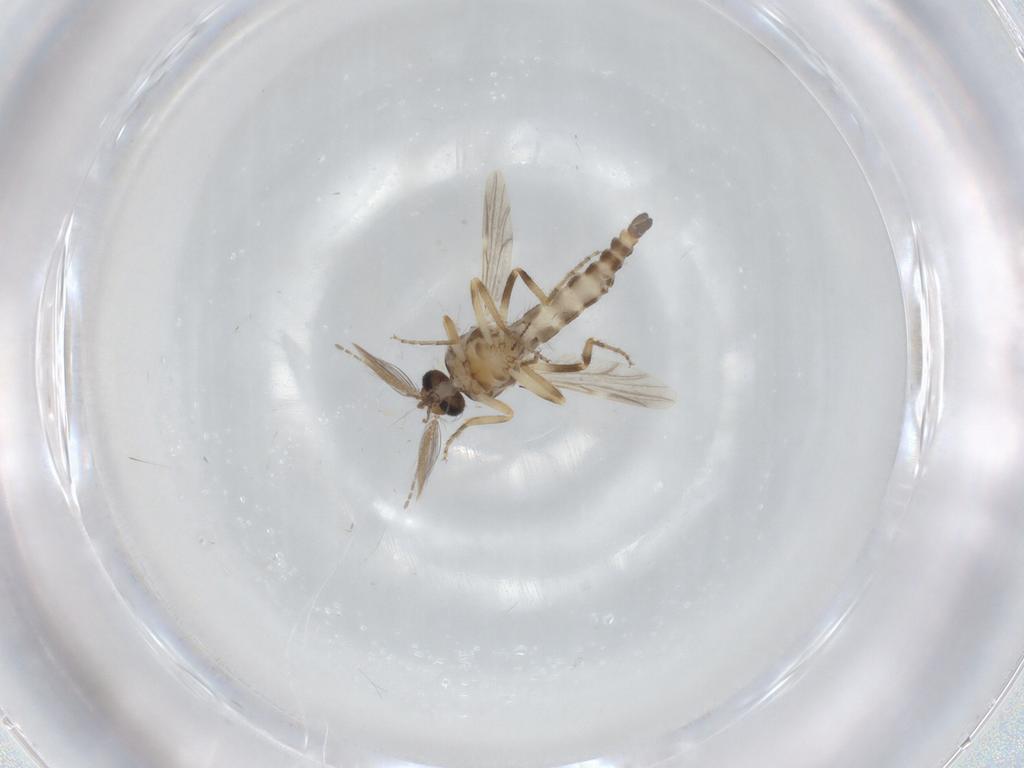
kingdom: Animalia
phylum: Arthropoda
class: Insecta
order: Diptera
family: Ceratopogonidae
